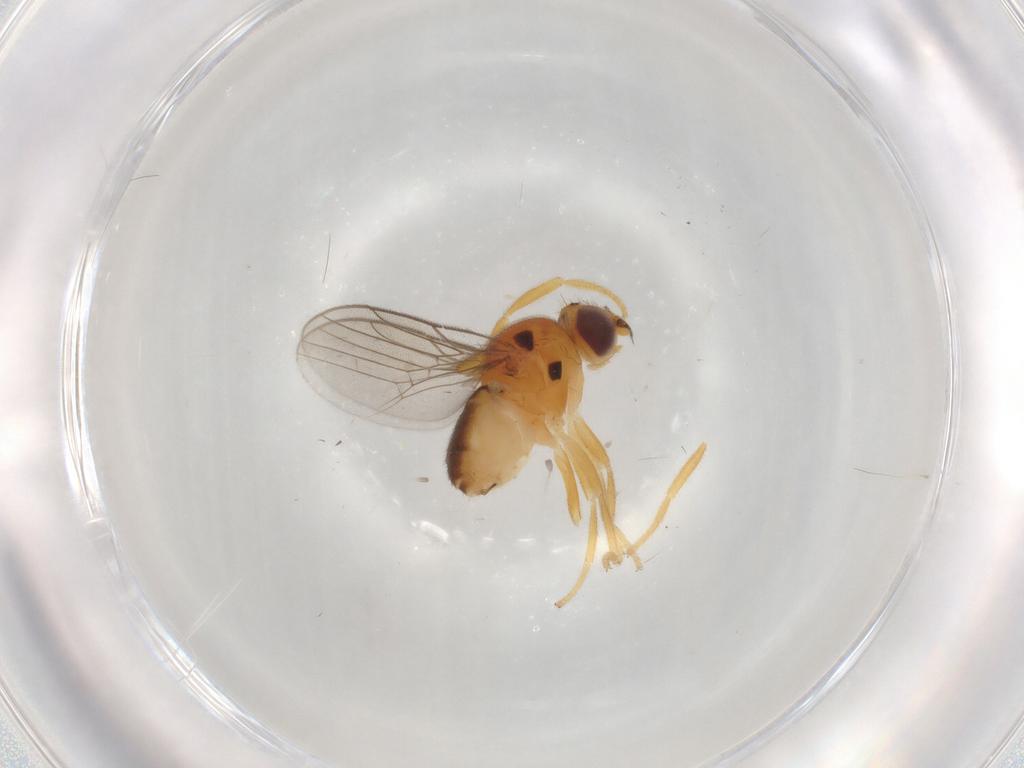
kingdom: Animalia
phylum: Arthropoda
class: Insecta
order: Diptera
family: Chloropidae
